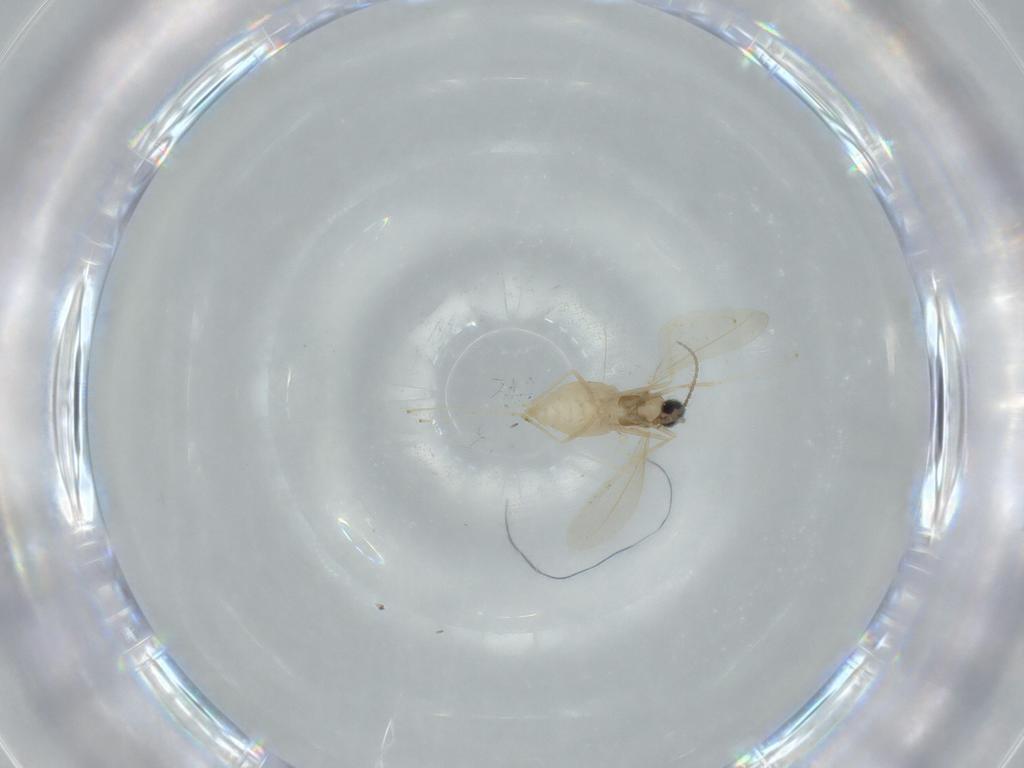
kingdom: Animalia
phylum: Arthropoda
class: Insecta
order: Diptera
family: Cecidomyiidae
